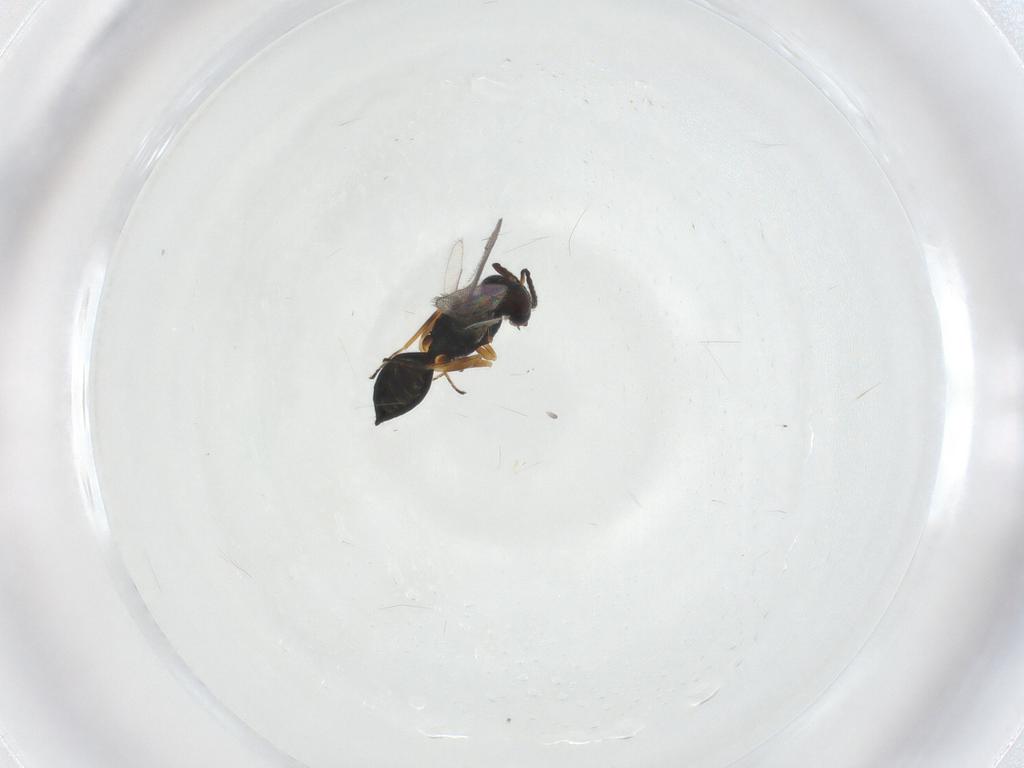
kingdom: Animalia
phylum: Arthropoda
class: Insecta
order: Hymenoptera
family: Pteromalidae
